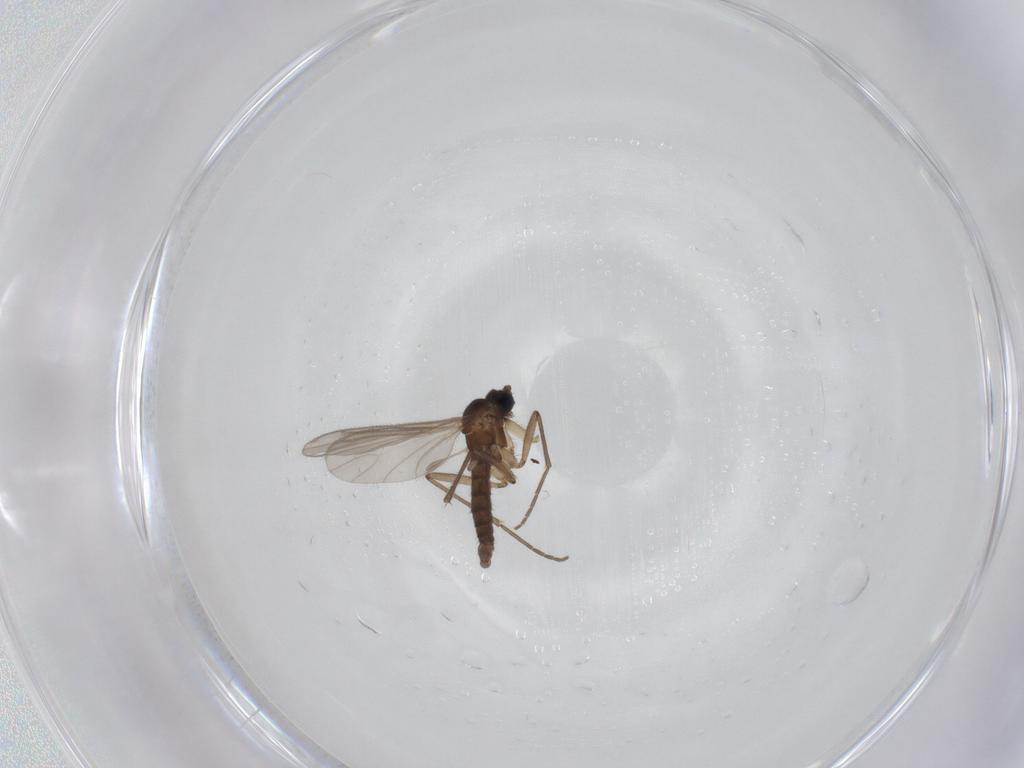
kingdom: Animalia
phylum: Arthropoda
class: Insecta
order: Diptera
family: Sciaridae
